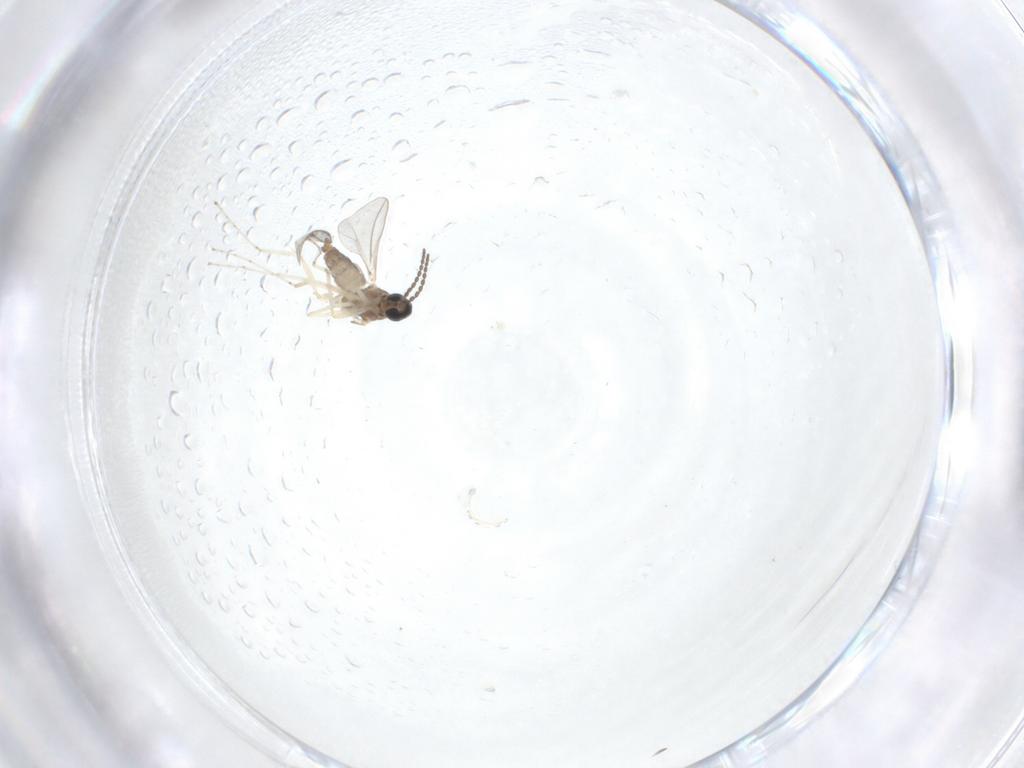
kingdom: Animalia
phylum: Arthropoda
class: Insecta
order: Diptera
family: Cecidomyiidae
